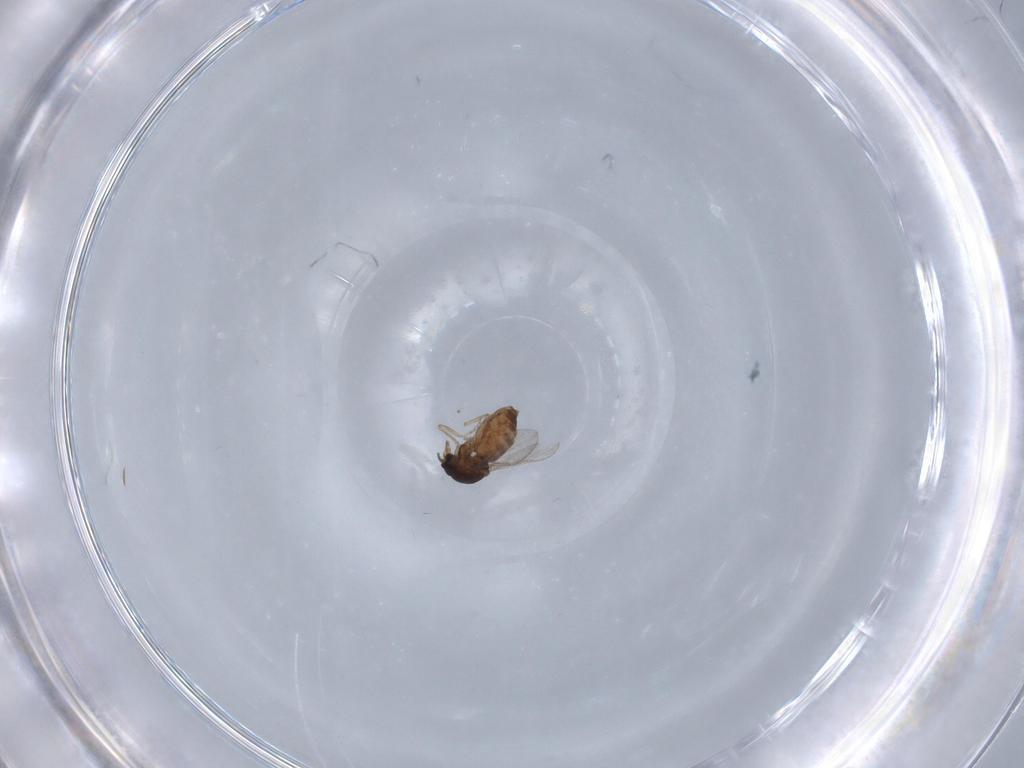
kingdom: Animalia
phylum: Arthropoda
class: Insecta
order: Diptera
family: Ceratopogonidae
